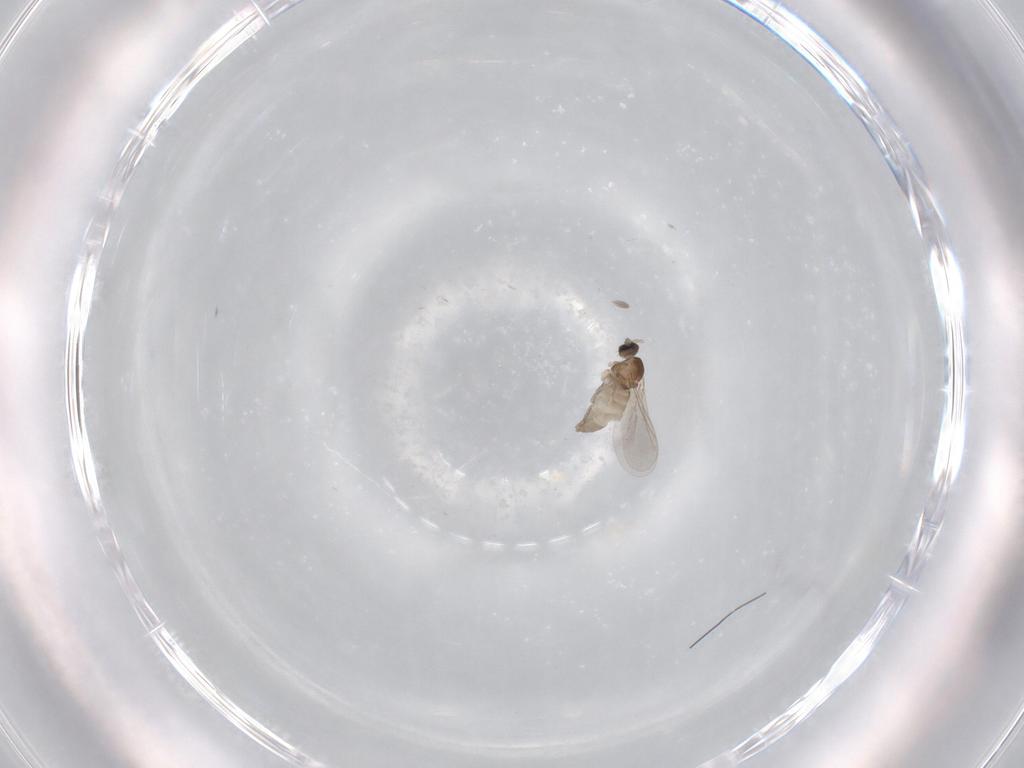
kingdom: Animalia
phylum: Arthropoda
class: Insecta
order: Diptera
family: Cecidomyiidae
